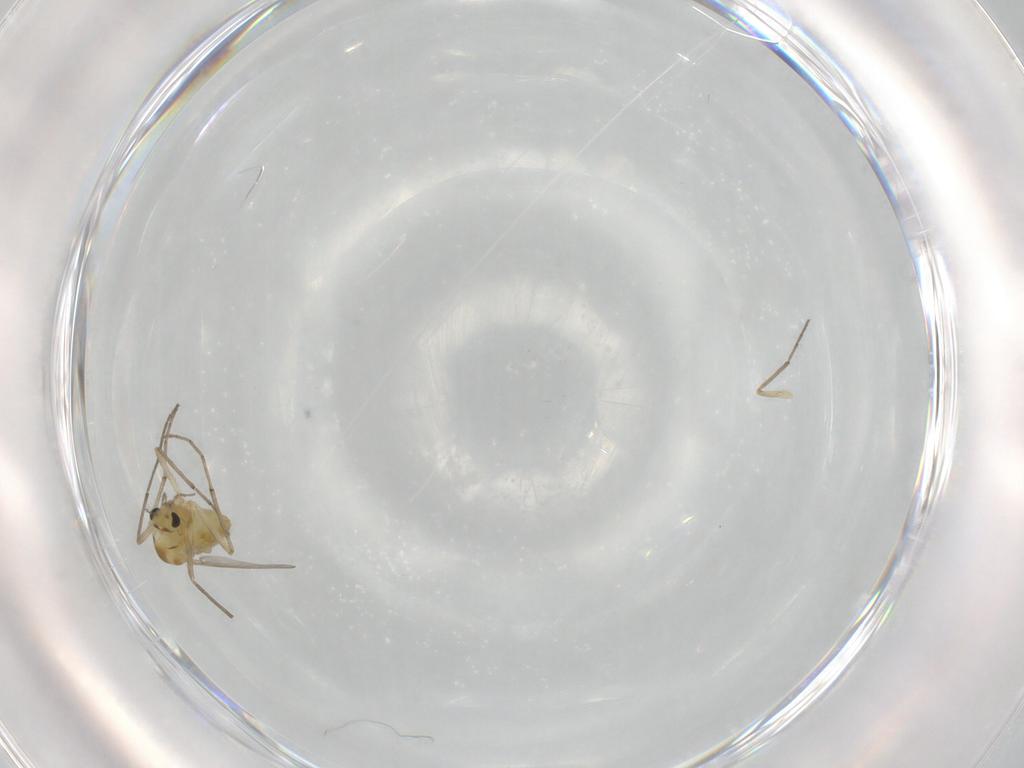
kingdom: Animalia
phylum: Arthropoda
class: Insecta
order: Diptera
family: Chironomidae
